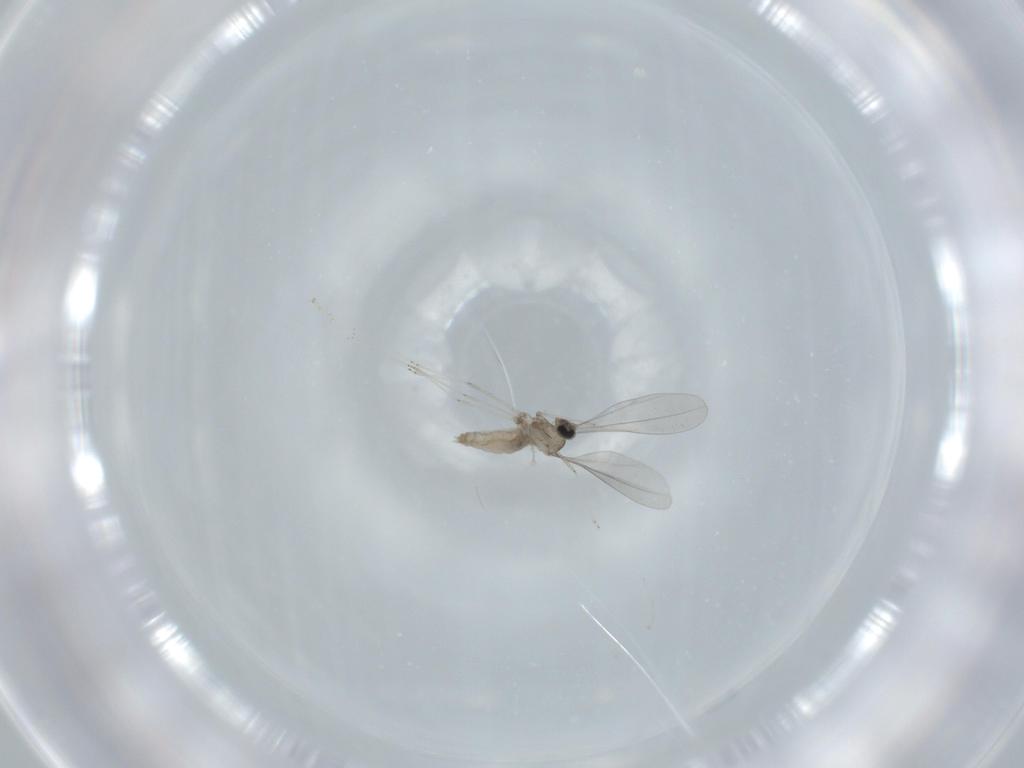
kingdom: Animalia
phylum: Arthropoda
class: Insecta
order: Diptera
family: Cecidomyiidae
